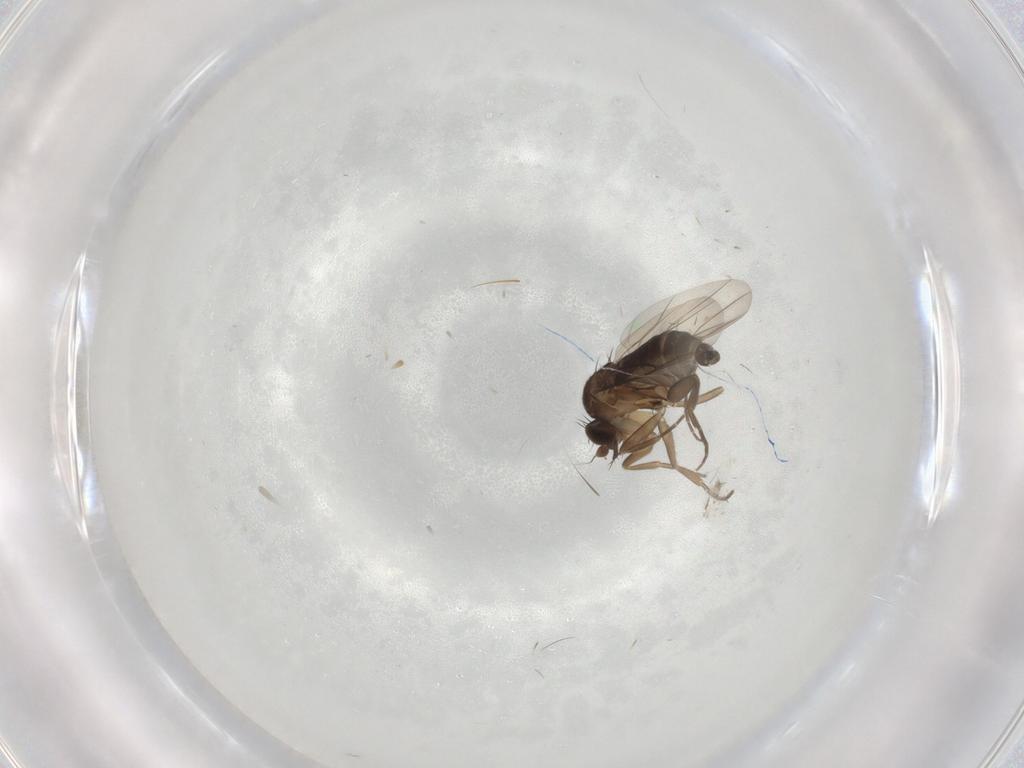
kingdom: Animalia
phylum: Arthropoda
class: Insecta
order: Diptera
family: Phoridae
